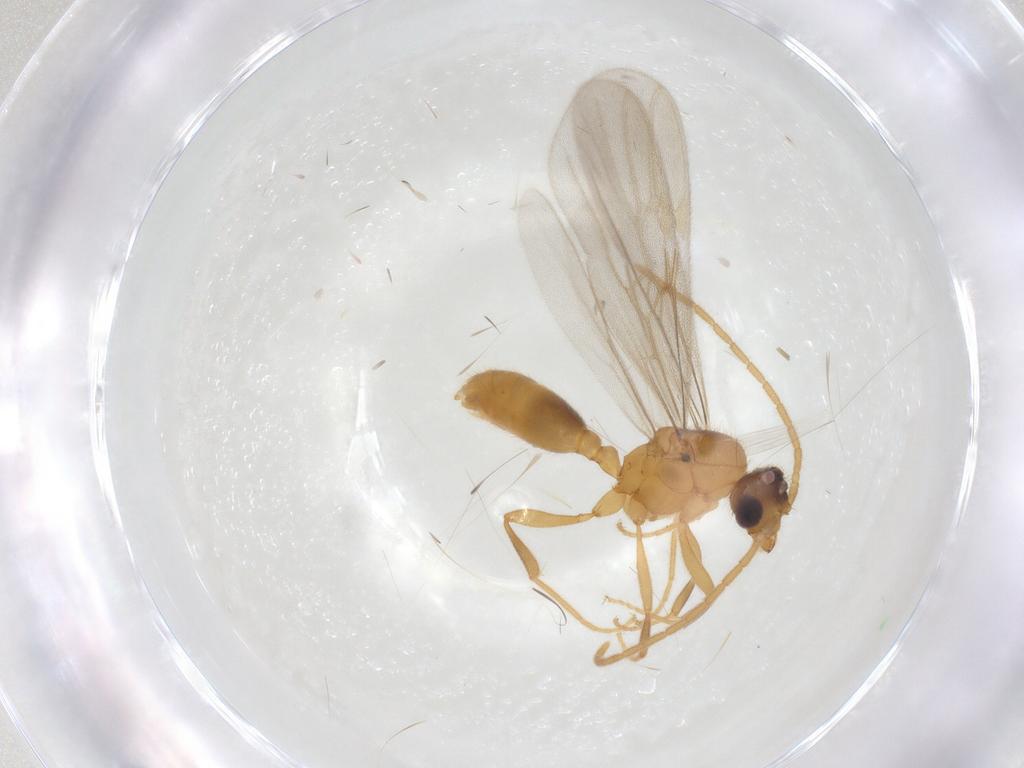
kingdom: Animalia
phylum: Arthropoda
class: Insecta
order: Hymenoptera
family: Formicidae
